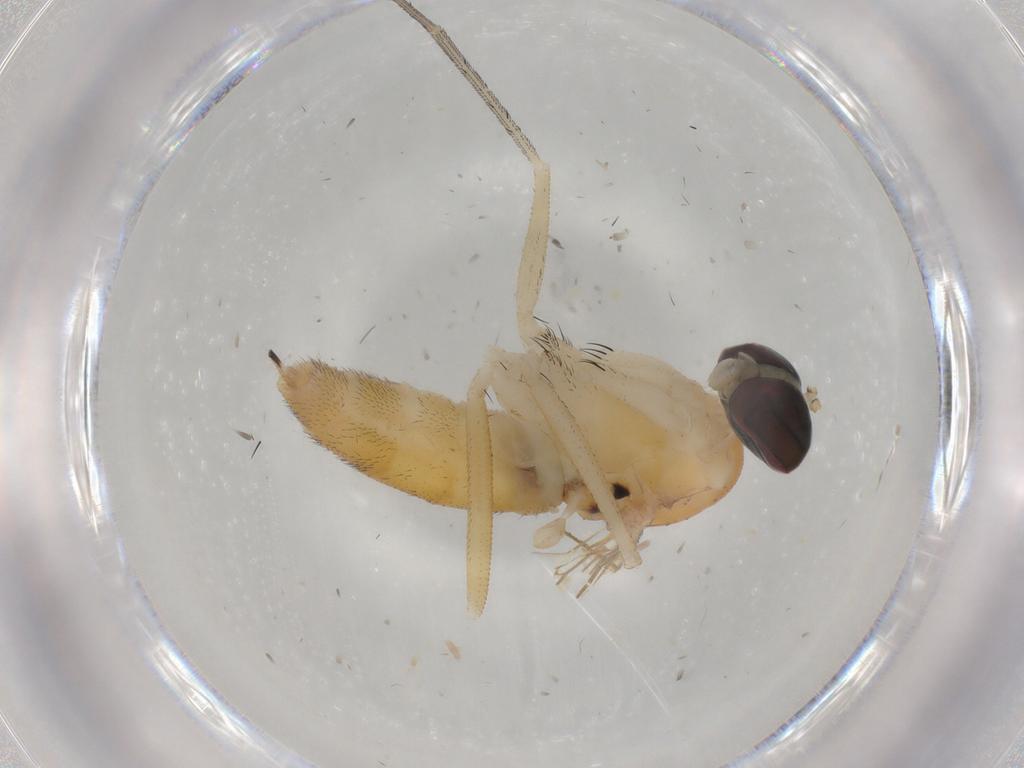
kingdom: Animalia
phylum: Arthropoda
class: Insecta
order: Diptera
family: Dolichopodidae
